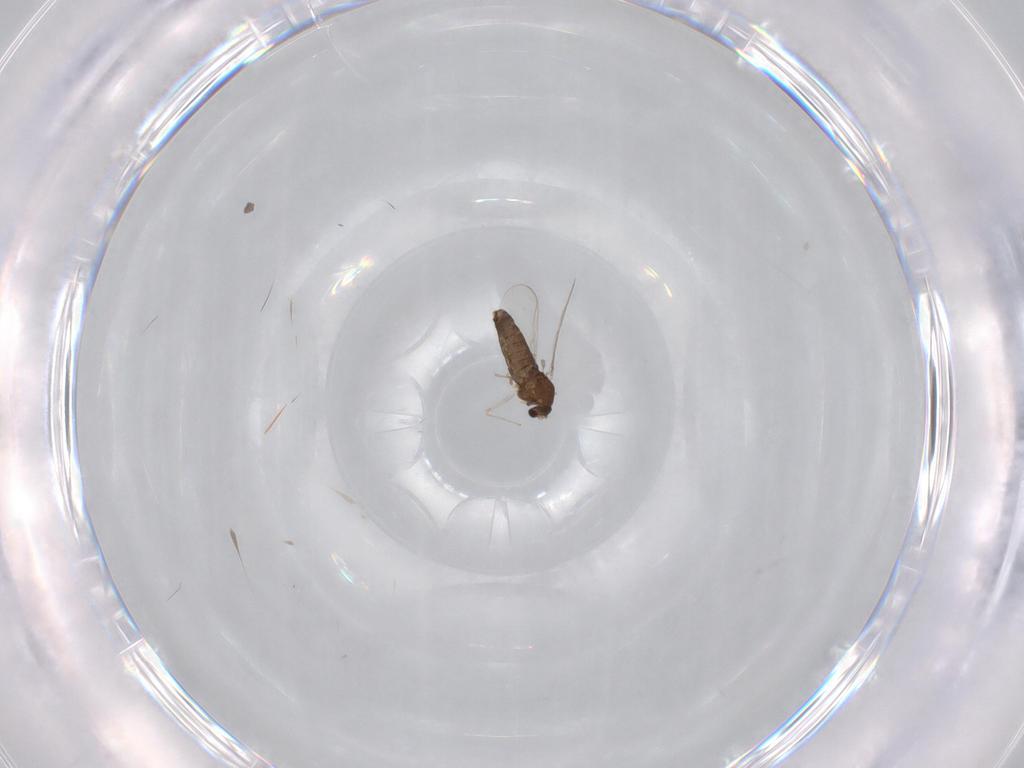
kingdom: Animalia
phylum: Arthropoda
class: Insecta
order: Diptera
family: Chironomidae
